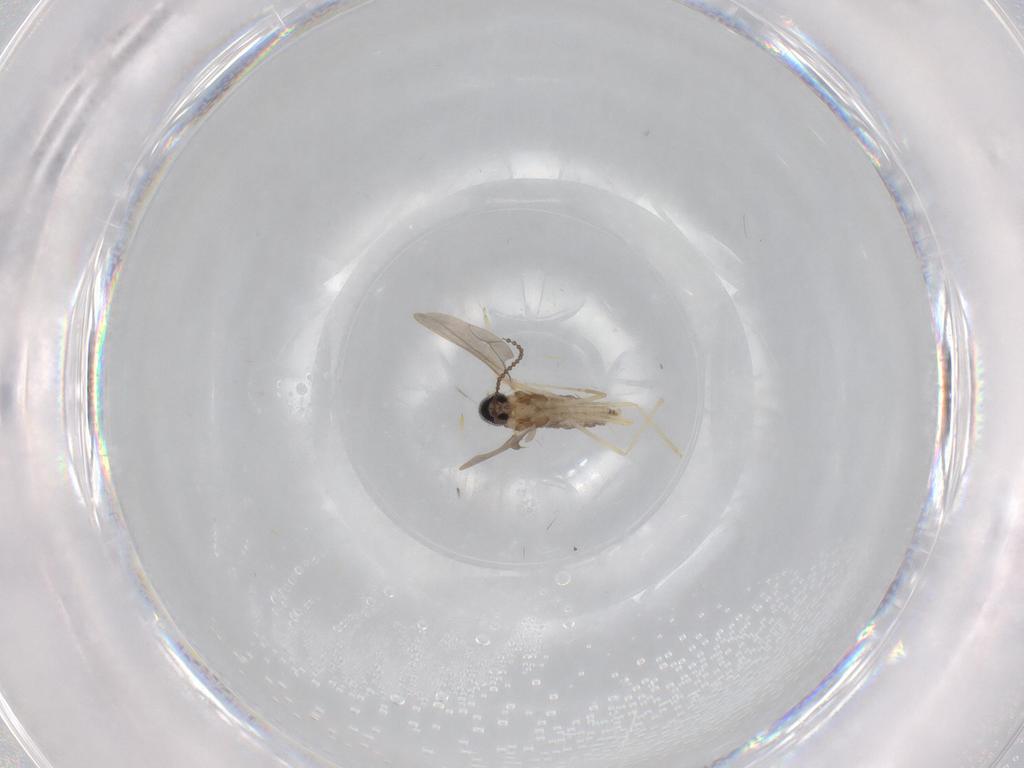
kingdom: Animalia
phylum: Arthropoda
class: Insecta
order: Diptera
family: Cecidomyiidae
